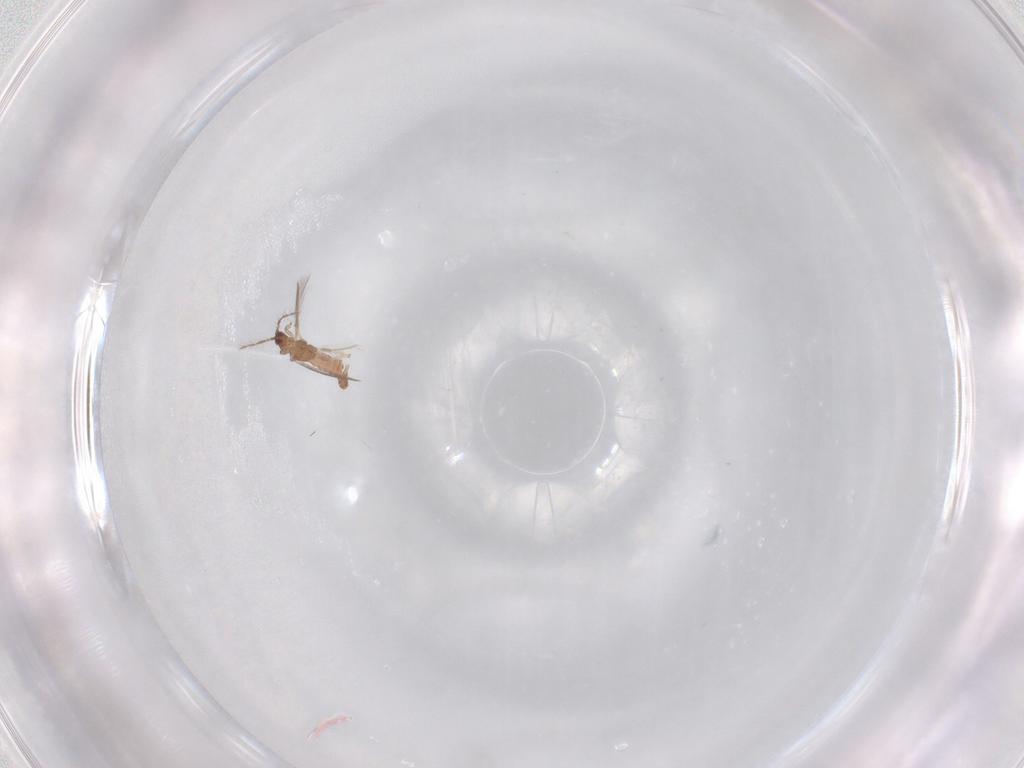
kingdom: Animalia
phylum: Arthropoda
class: Insecta
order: Thysanoptera
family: Thripidae
